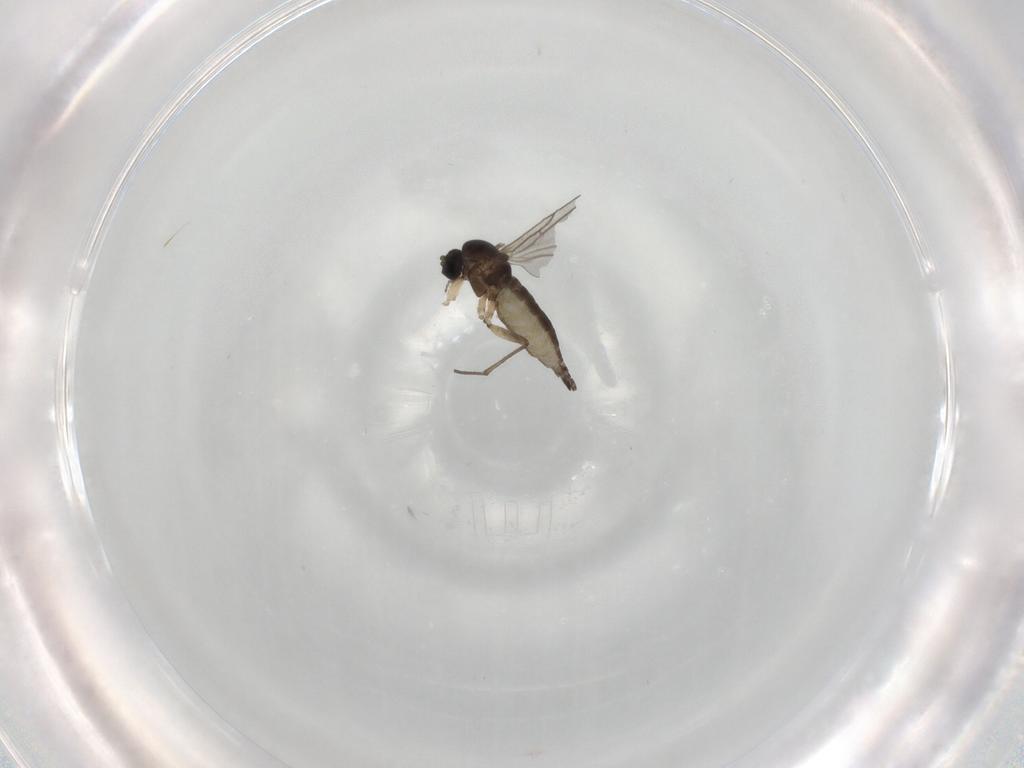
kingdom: Animalia
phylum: Arthropoda
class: Insecta
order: Diptera
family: Sciaridae
